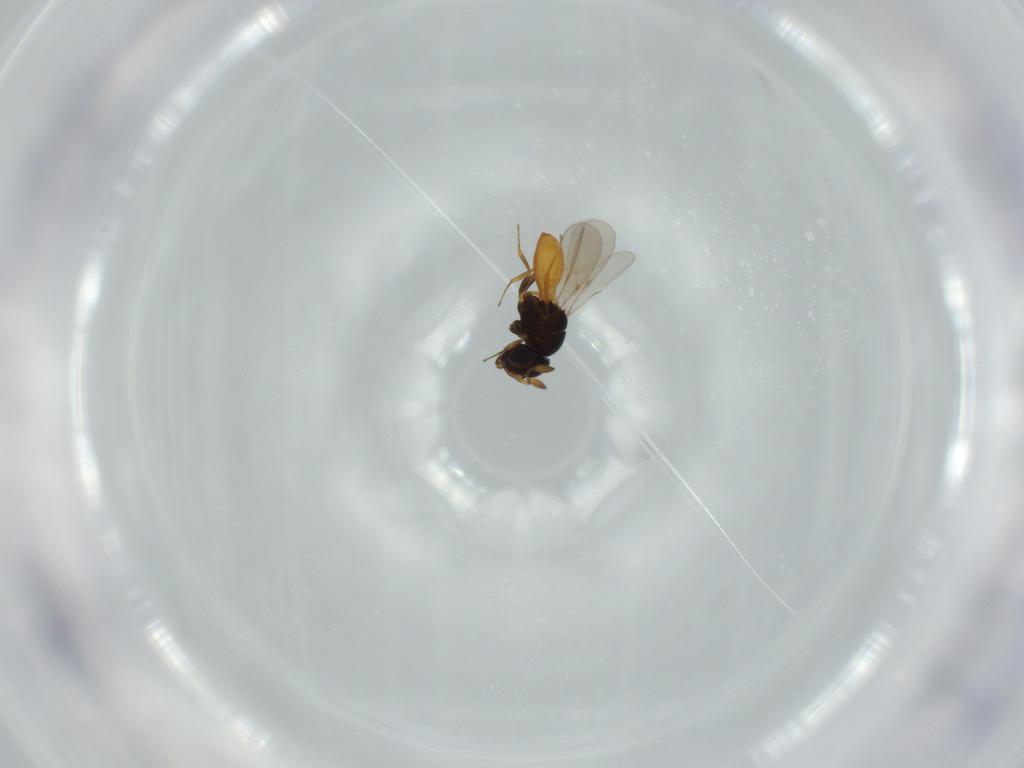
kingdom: Animalia
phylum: Arthropoda
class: Insecta
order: Hymenoptera
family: Scelionidae
